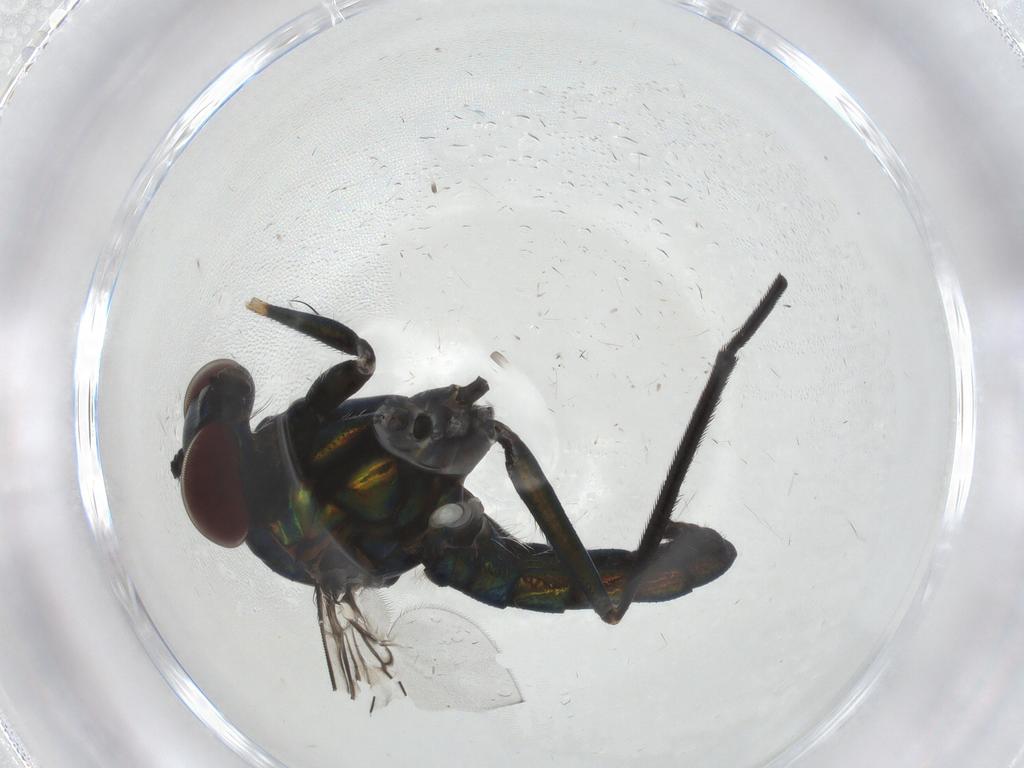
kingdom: Animalia
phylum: Arthropoda
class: Insecta
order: Diptera
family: Dolichopodidae
